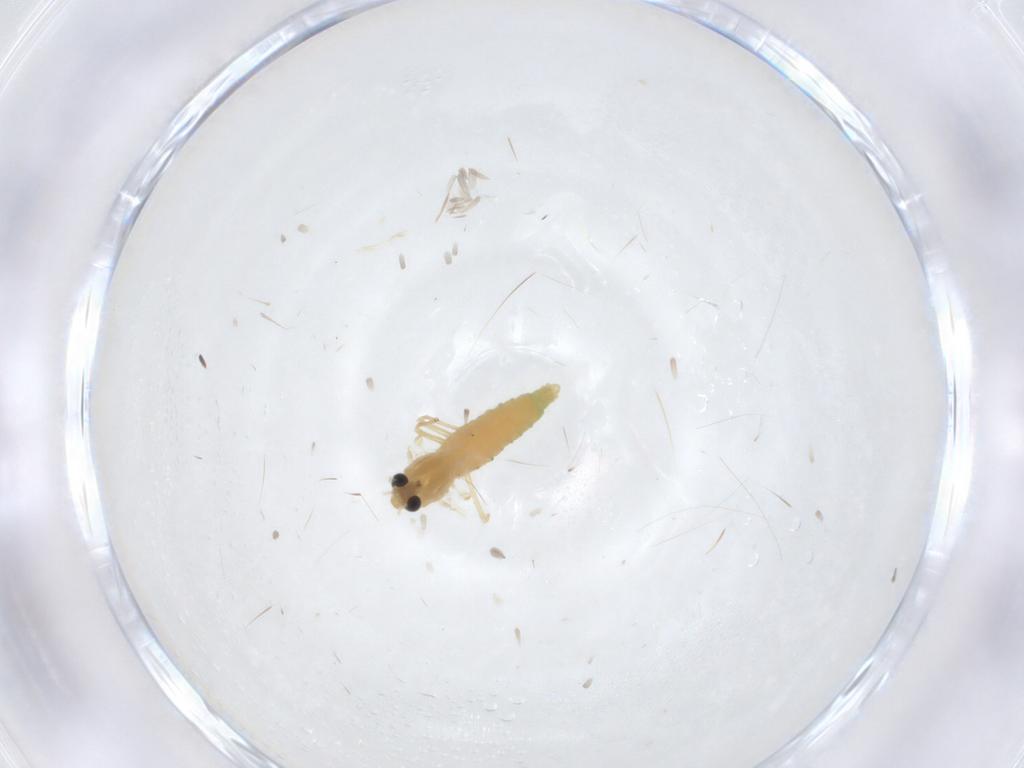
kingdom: Animalia
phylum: Arthropoda
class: Insecta
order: Diptera
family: Chironomidae
